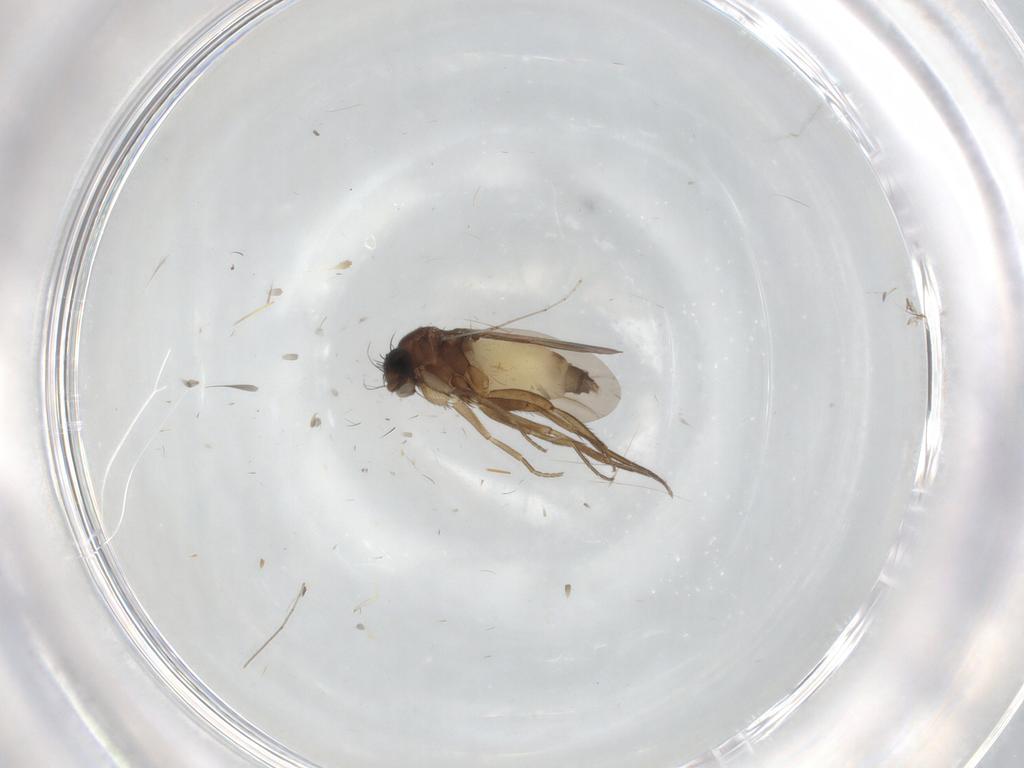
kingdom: Animalia
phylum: Arthropoda
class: Insecta
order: Diptera
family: Phoridae
